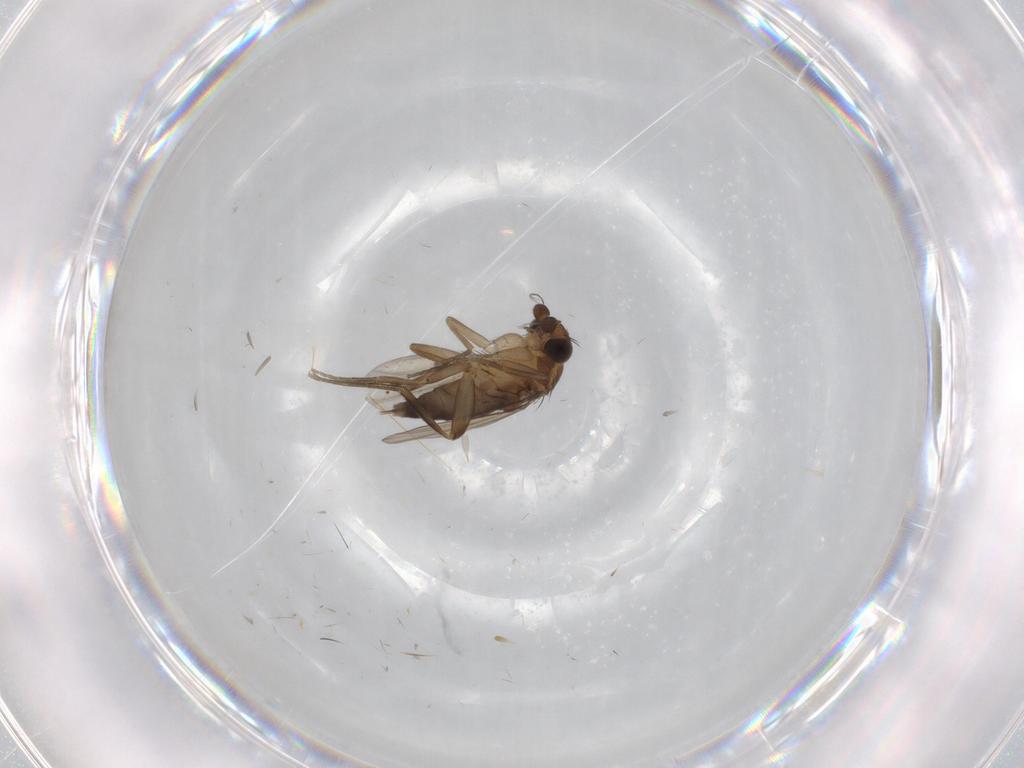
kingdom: Animalia
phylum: Arthropoda
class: Insecta
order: Diptera
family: Phoridae
